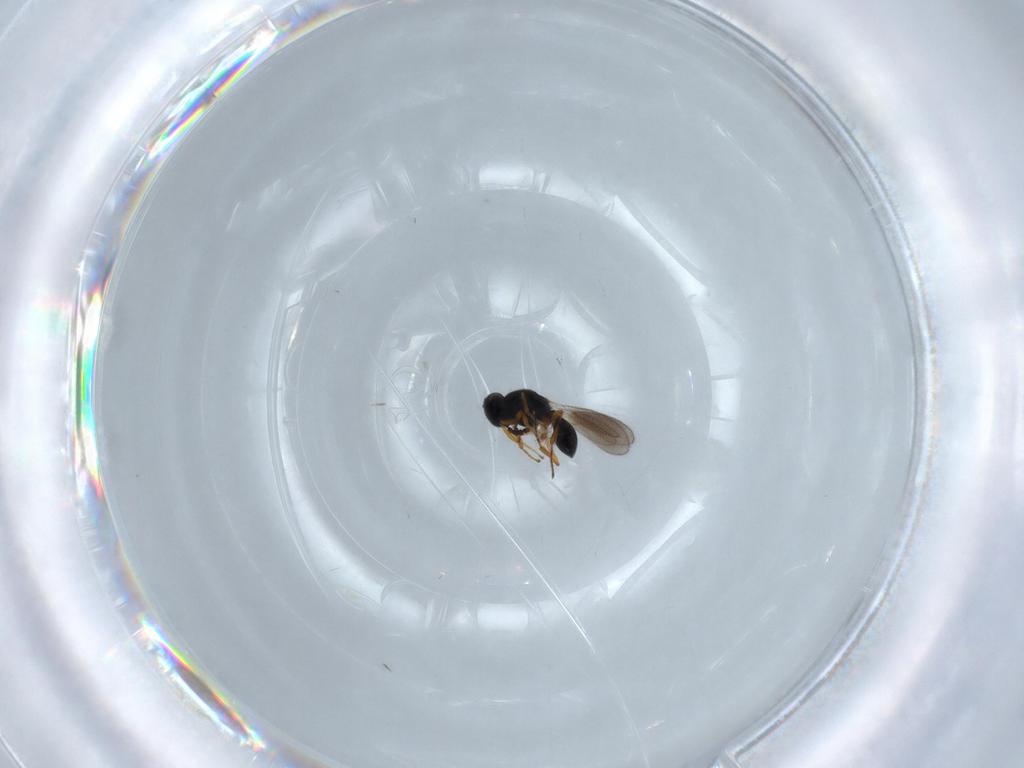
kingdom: Animalia
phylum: Arthropoda
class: Insecta
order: Hymenoptera
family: Platygastridae
